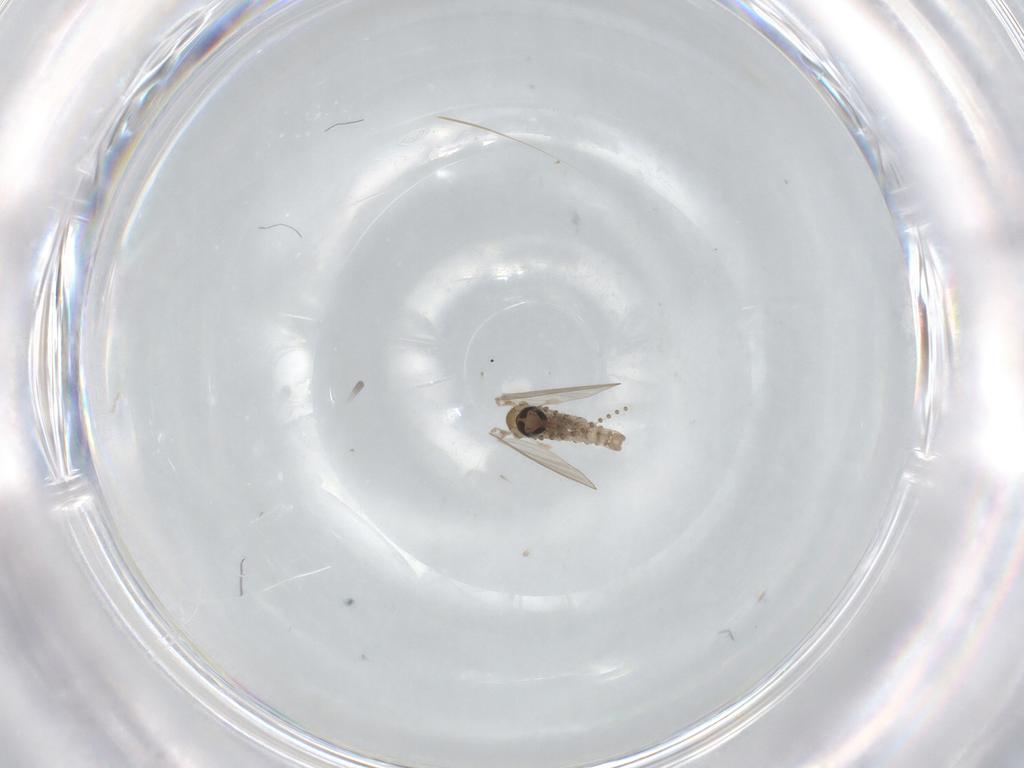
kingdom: Animalia
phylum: Arthropoda
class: Insecta
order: Diptera
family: Psychodidae
